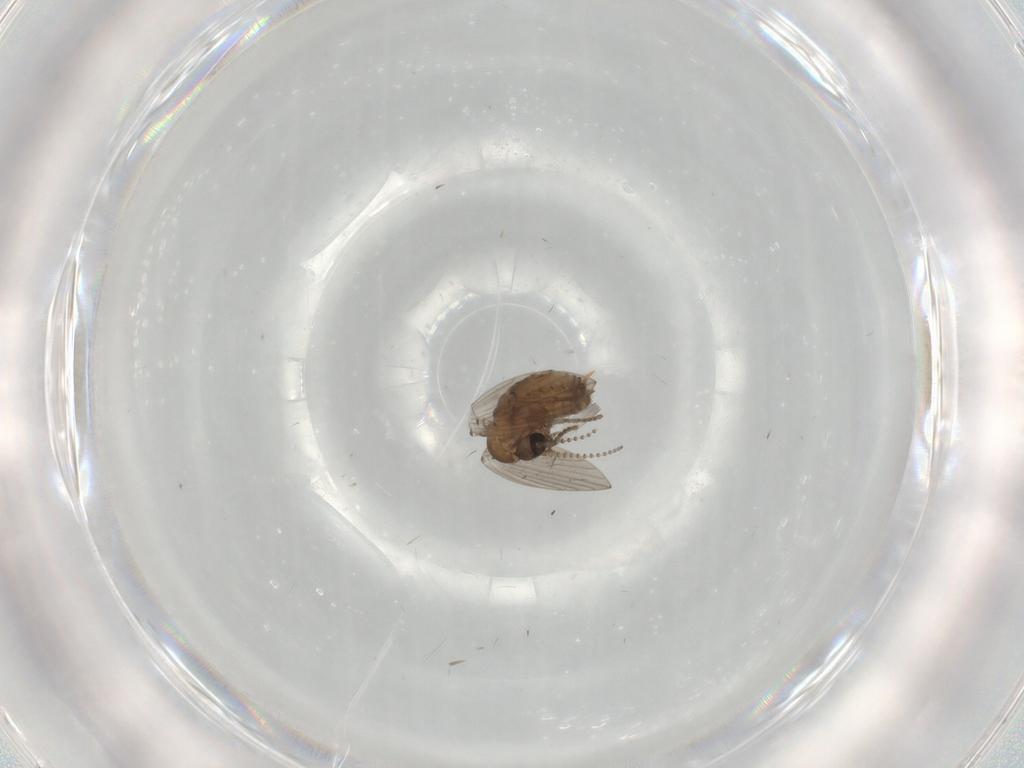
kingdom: Animalia
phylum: Arthropoda
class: Insecta
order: Diptera
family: Psychodidae
